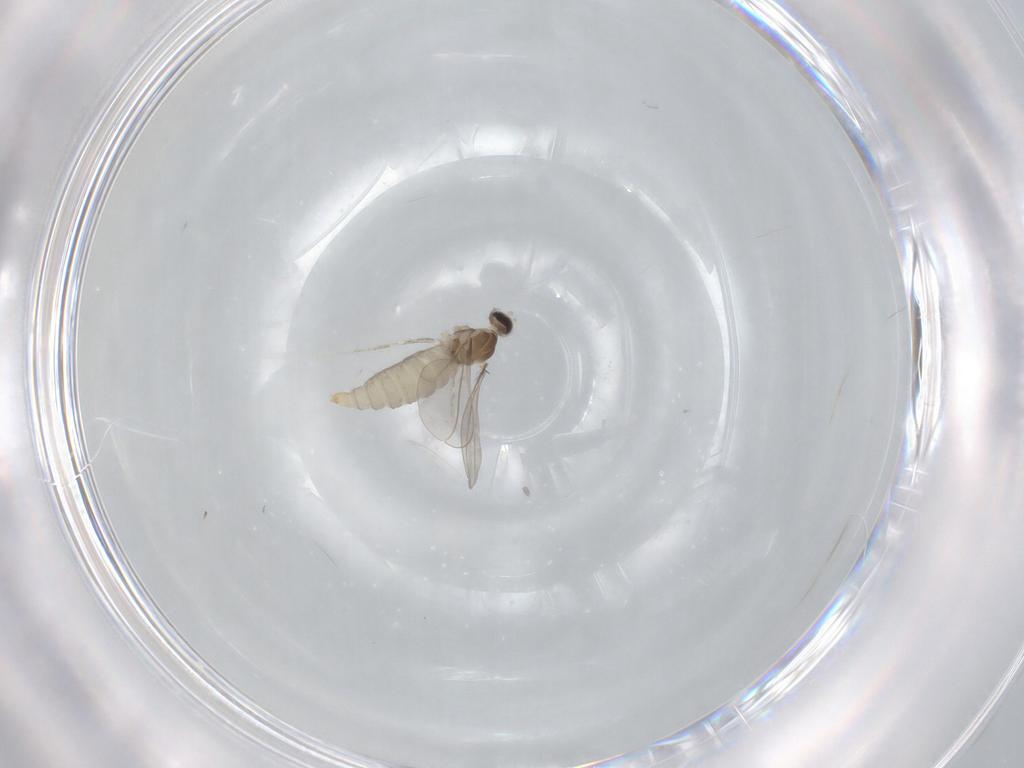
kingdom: Animalia
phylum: Arthropoda
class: Insecta
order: Diptera
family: Cecidomyiidae
